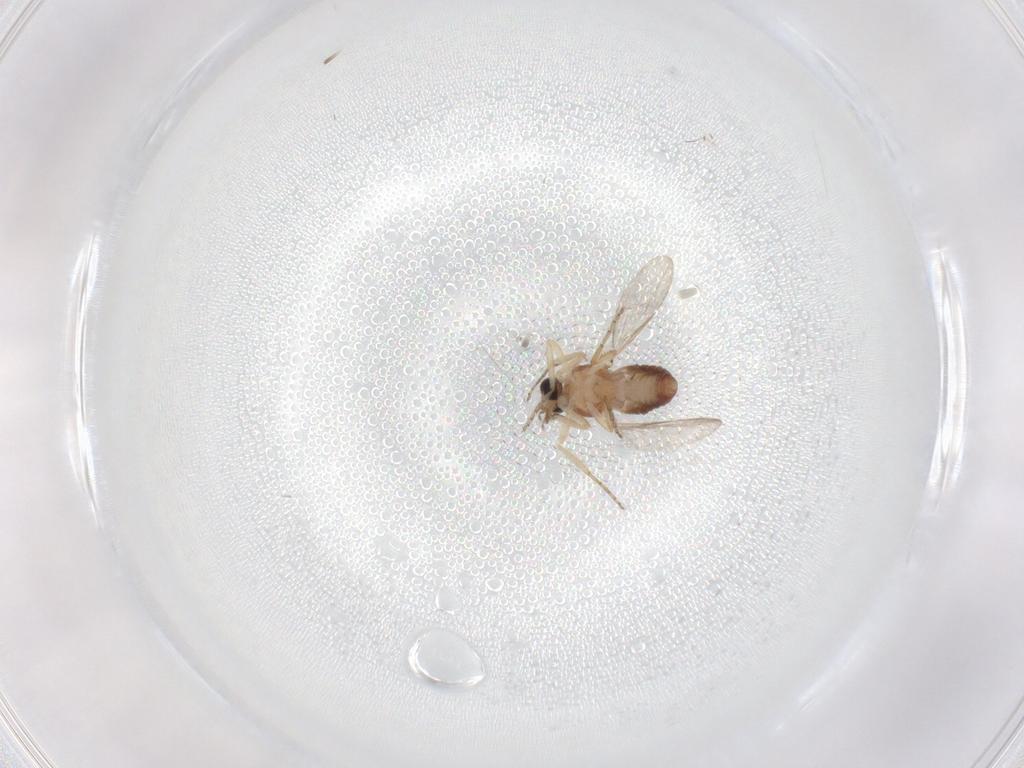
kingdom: Animalia
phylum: Arthropoda
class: Insecta
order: Diptera
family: Ceratopogonidae
